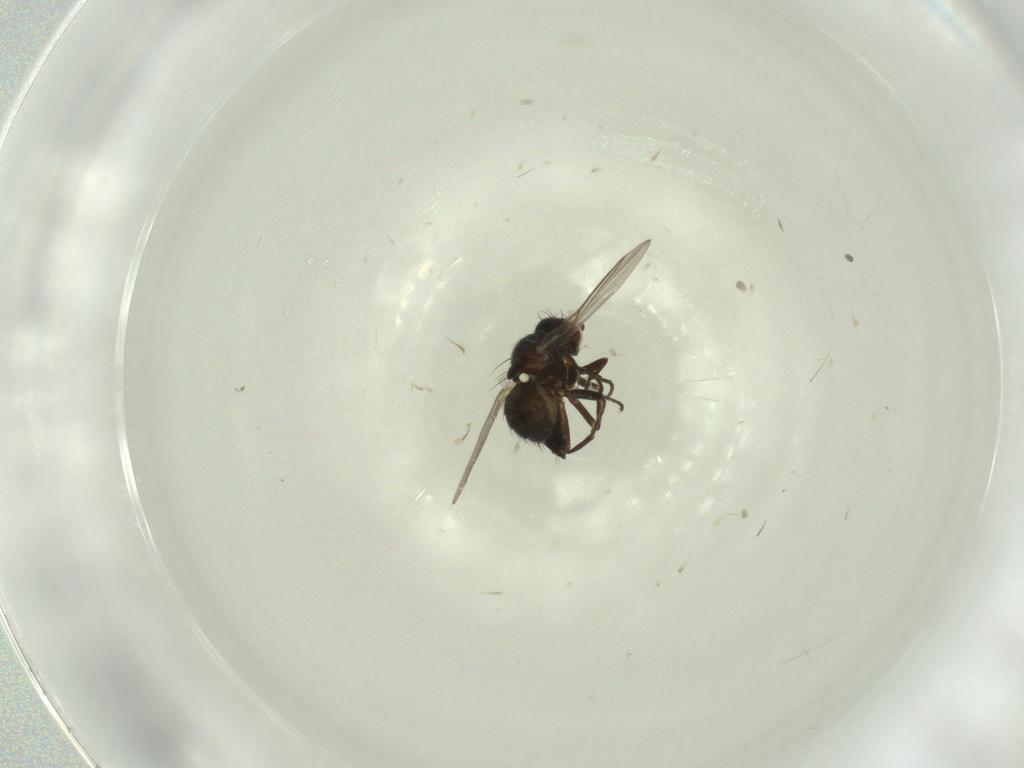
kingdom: Animalia
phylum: Arthropoda
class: Insecta
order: Diptera
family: Dolichopodidae
